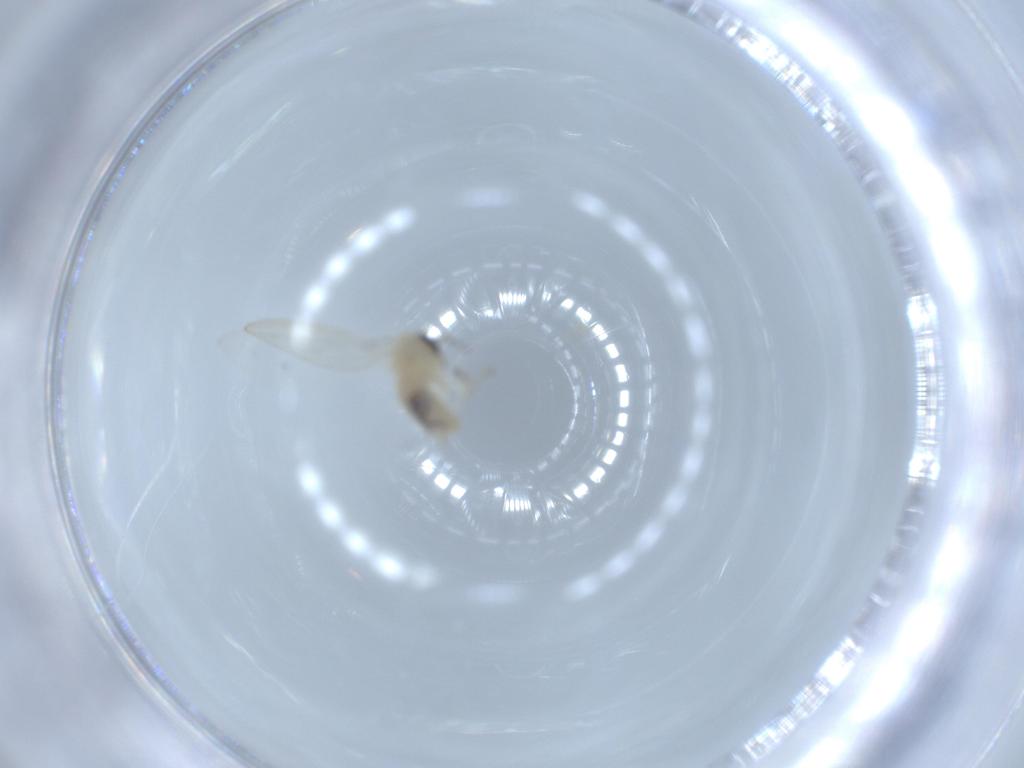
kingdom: Animalia
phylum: Arthropoda
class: Insecta
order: Diptera
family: Psychodidae
